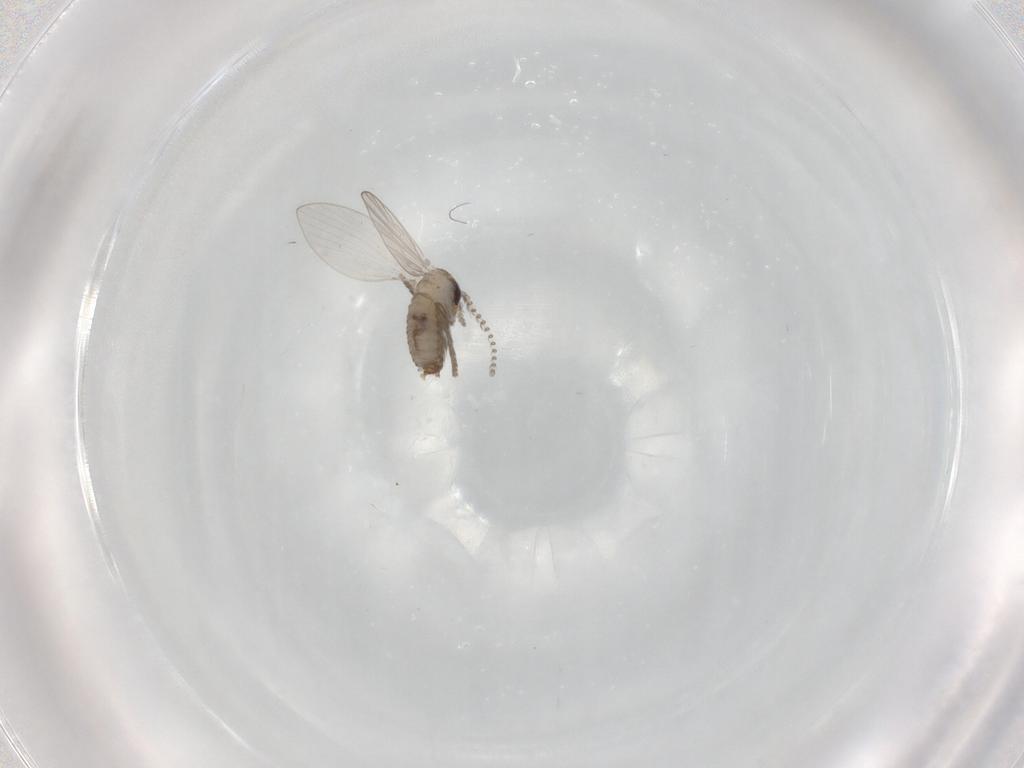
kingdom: Animalia
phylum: Arthropoda
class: Insecta
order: Diptera
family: Psychodidae
